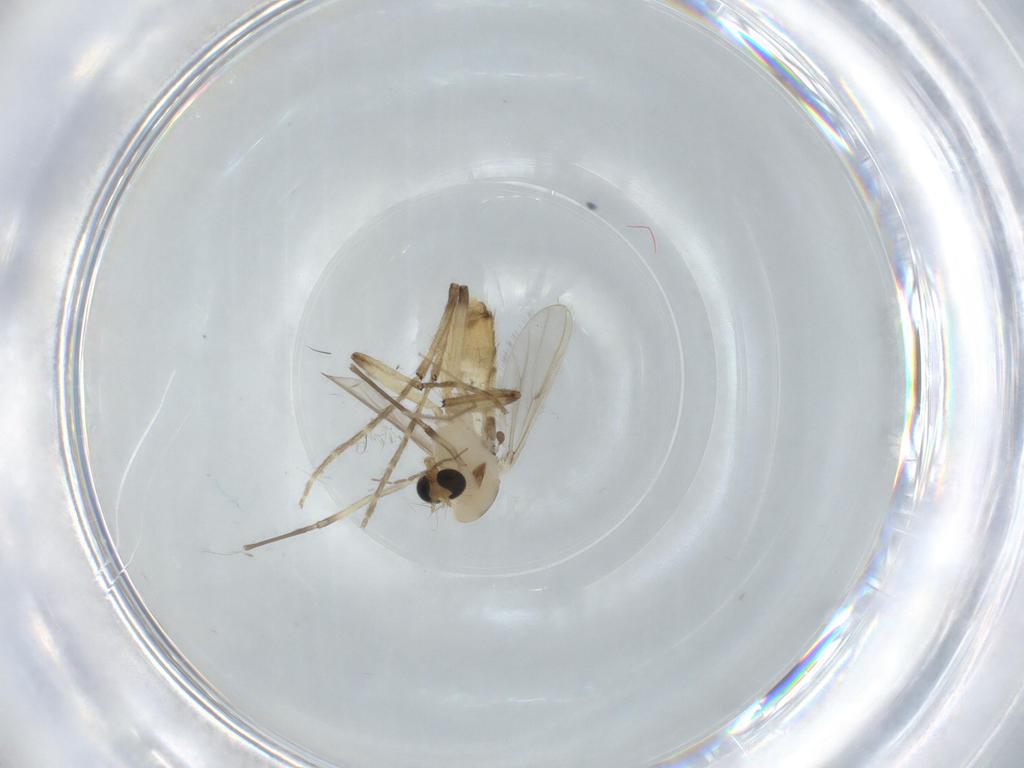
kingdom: Animalia
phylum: Arthropoda
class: Insecta
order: Diptera
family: Chironomidae
